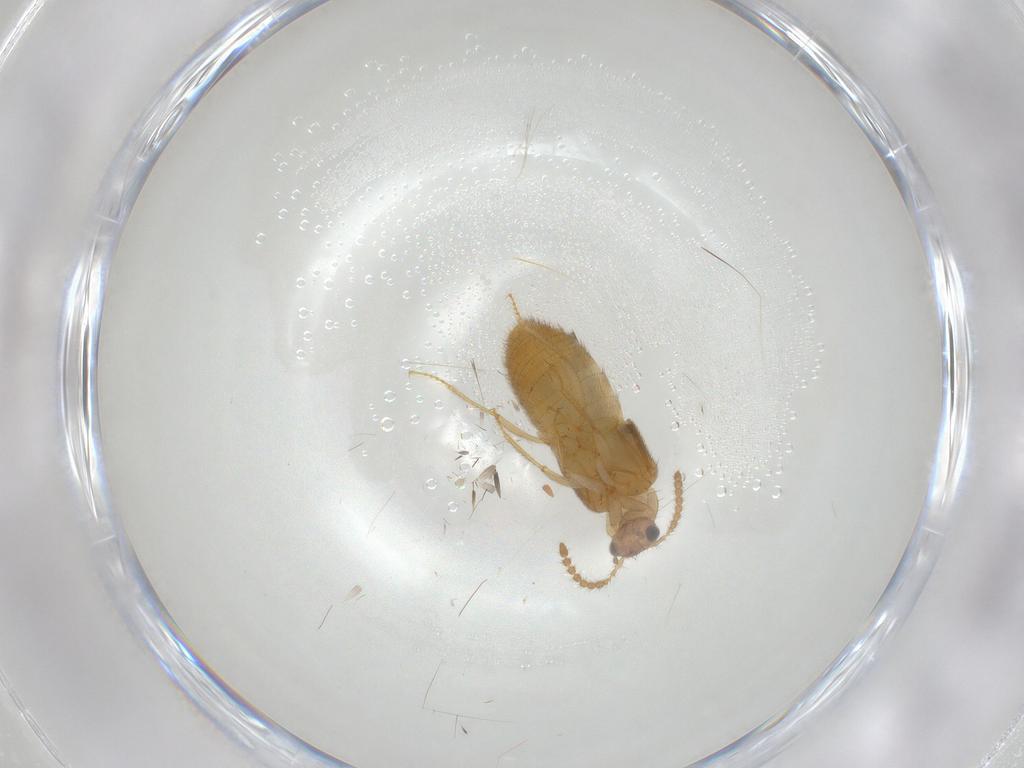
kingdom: Animalia
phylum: Arthropoda
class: Insecta
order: Coleoptera
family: Staphylinidae
